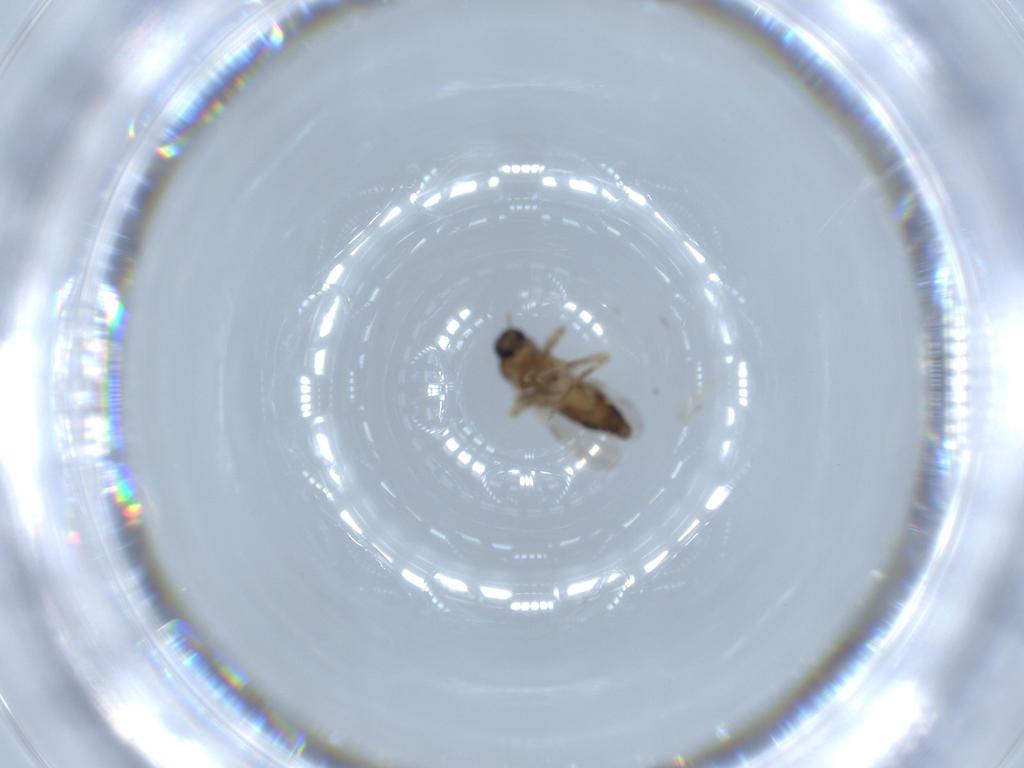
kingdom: Animalia
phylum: Arthropoda
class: Insecta
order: Diptera
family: Ceratopogonidae
